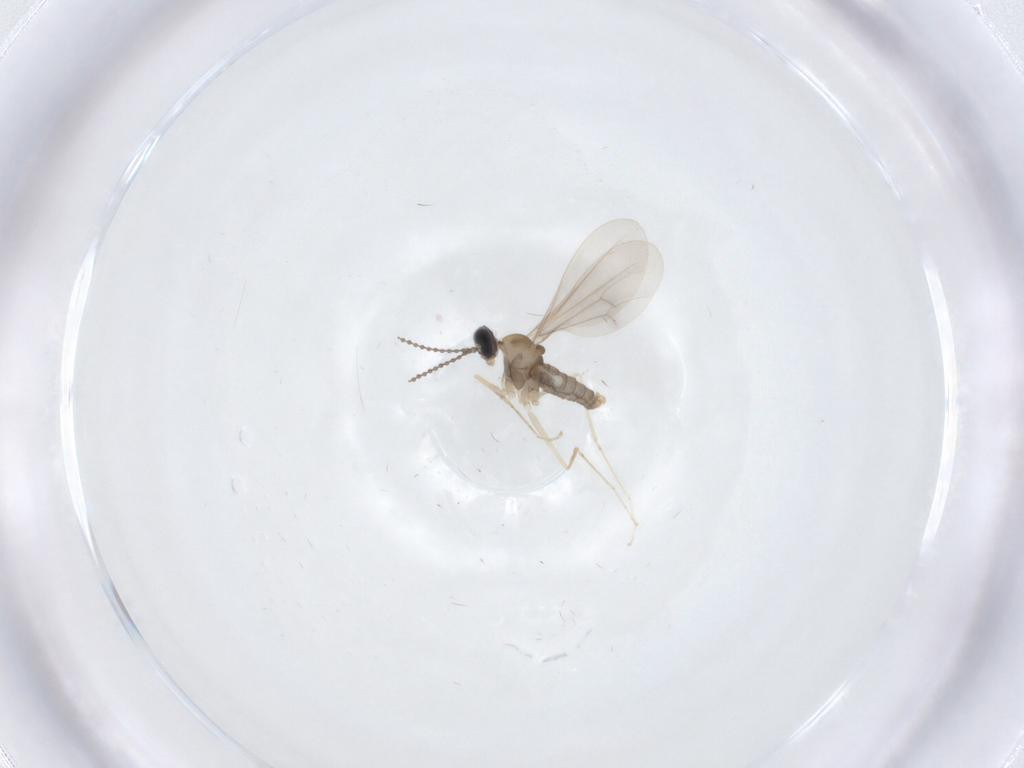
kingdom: Animalia
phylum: Arthropoda
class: Insecta
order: Diptera
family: Cecidomyiidae
